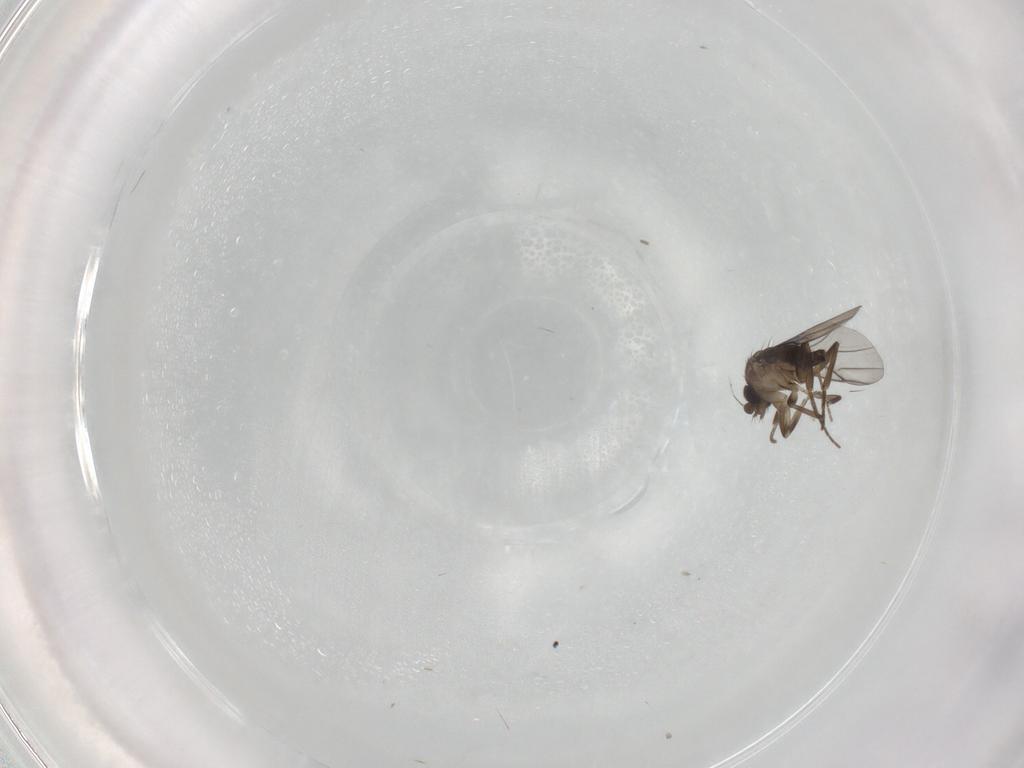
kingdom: Animalia
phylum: Arthropoda
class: Insecta
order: Diptera
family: Phoridae
